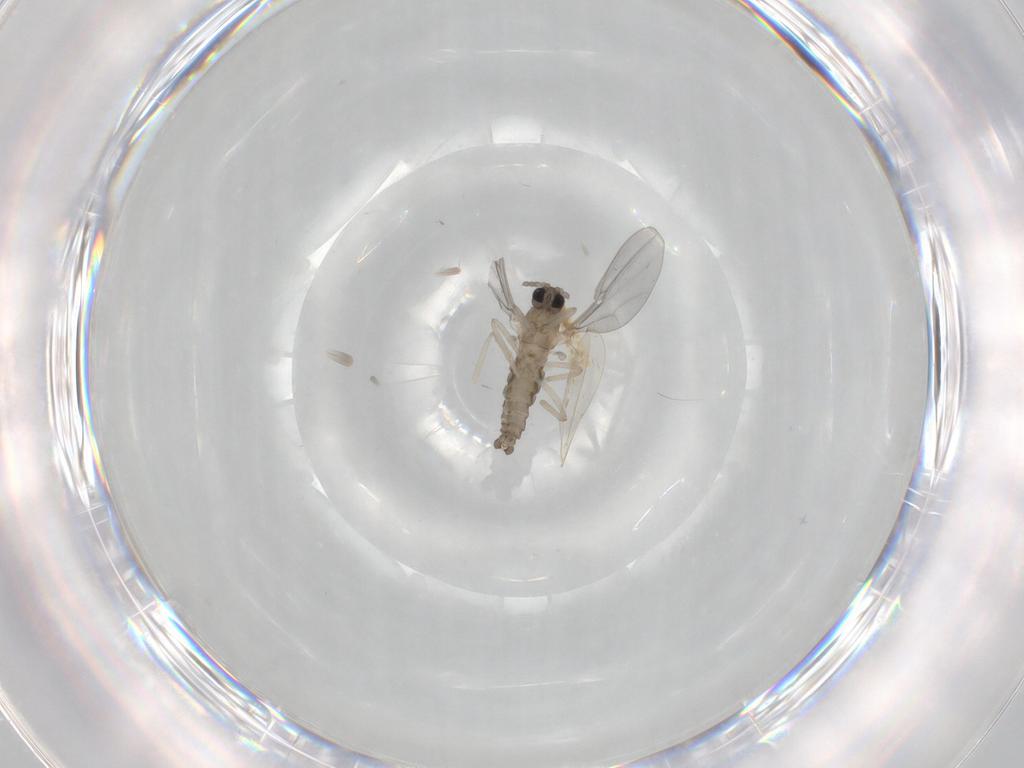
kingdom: Animalia
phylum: Arthropoda
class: Insecta
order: Diptera
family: Cecidomyiidae
